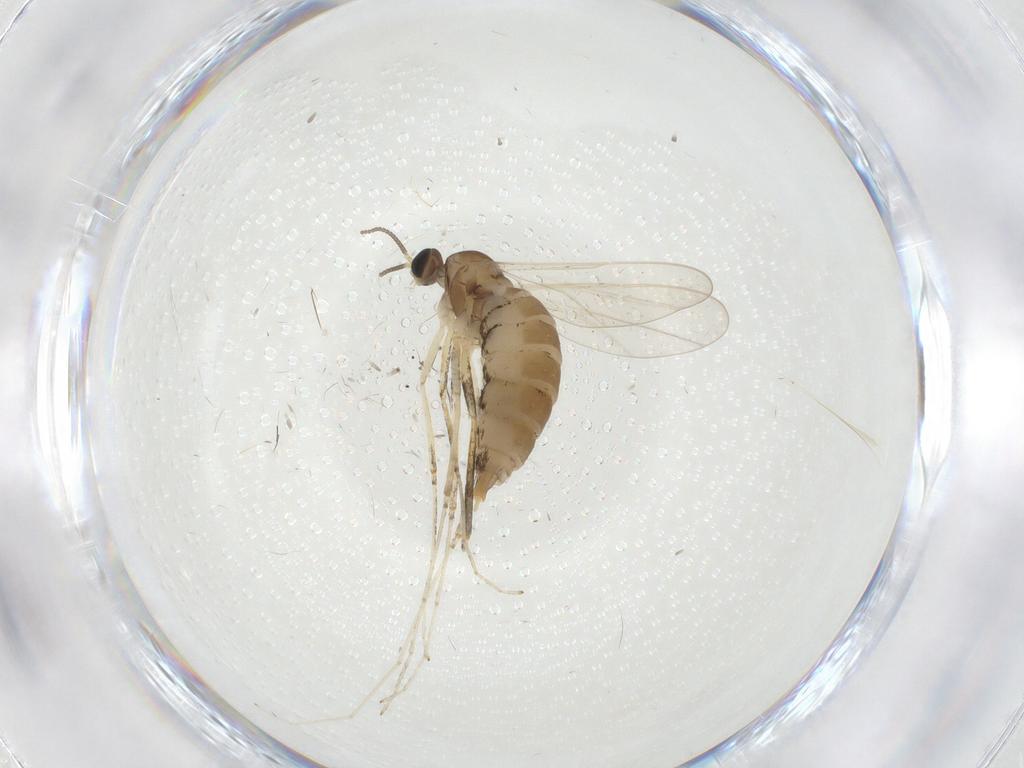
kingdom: Animalia
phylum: Arthropoda
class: Insecta
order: Diptera
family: Cecidomyiidae
